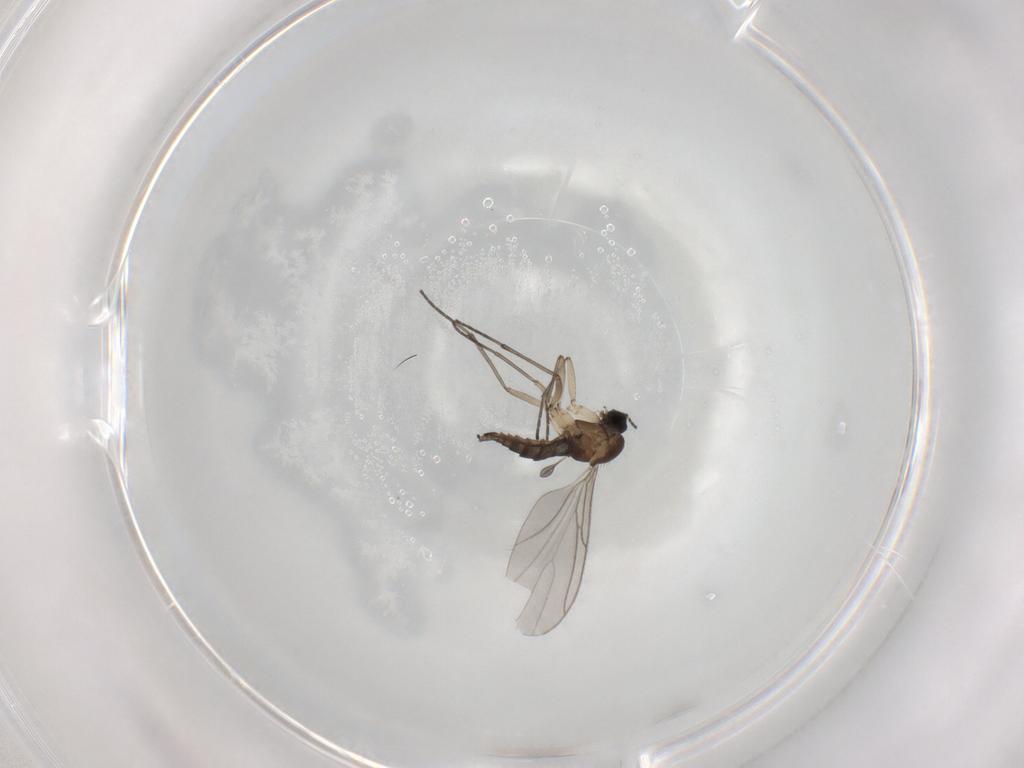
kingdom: Animalia
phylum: Arthropoda
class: Insecta
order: Diptera
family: Sciaridae
